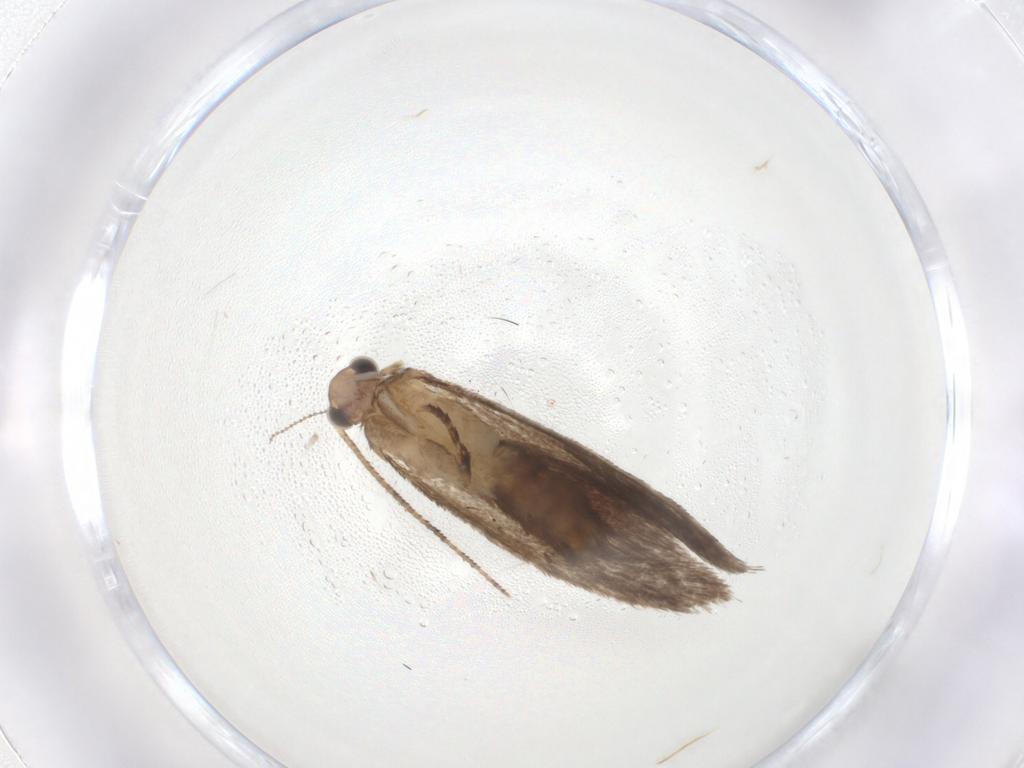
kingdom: Animalia
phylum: Arthropoda
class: Insecta
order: Lepidoptera
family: Dryadaulidae
